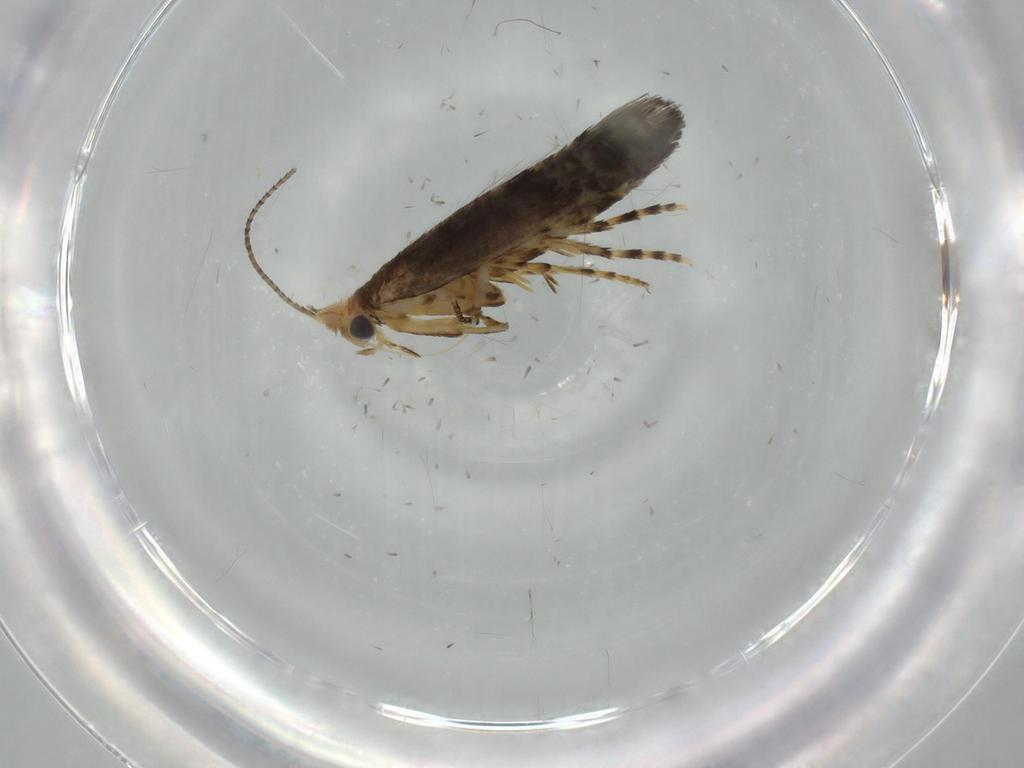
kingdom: Animalia
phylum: Arthropoda
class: Insecta
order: Lepidoptera
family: Argyresthiidae
